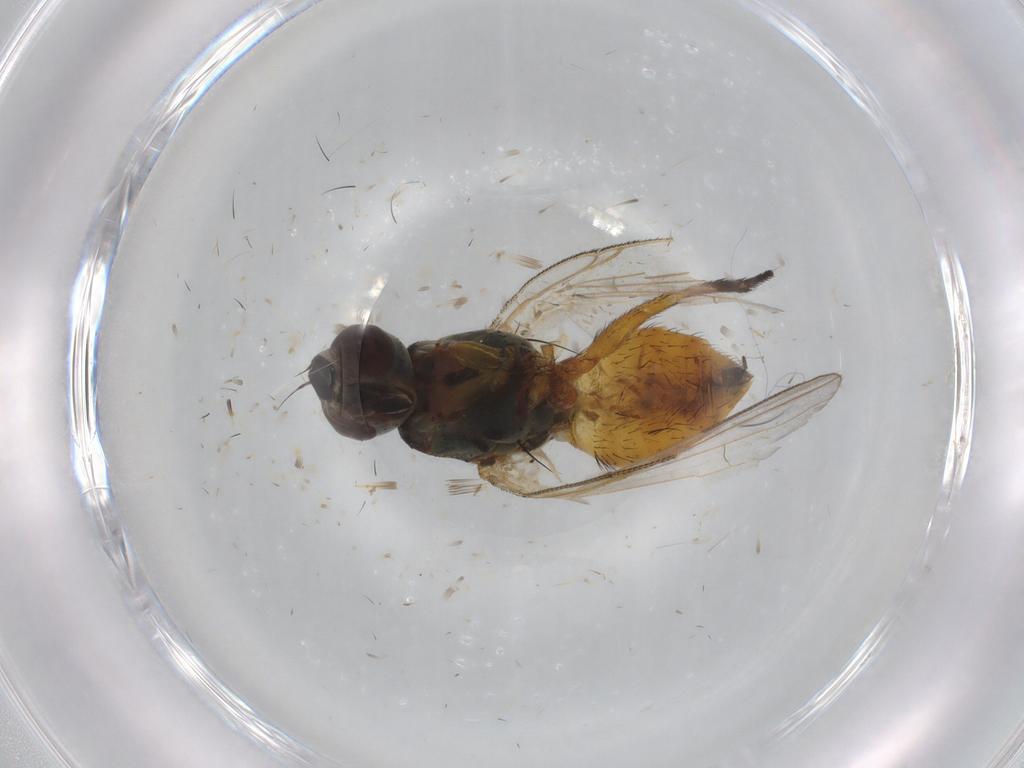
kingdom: Animalia
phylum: Arthropoda
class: Insecta
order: Diptera
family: Muscidae
